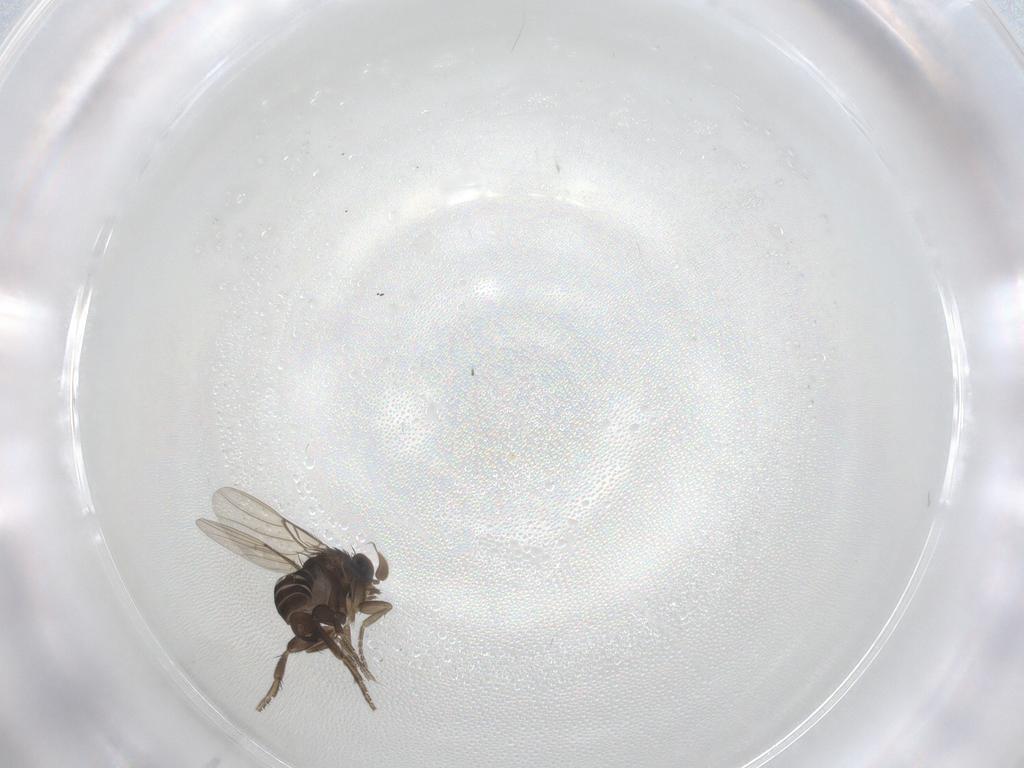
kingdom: Animalia
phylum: Arthropoda
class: Insecta
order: Diptera
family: Phoridae
